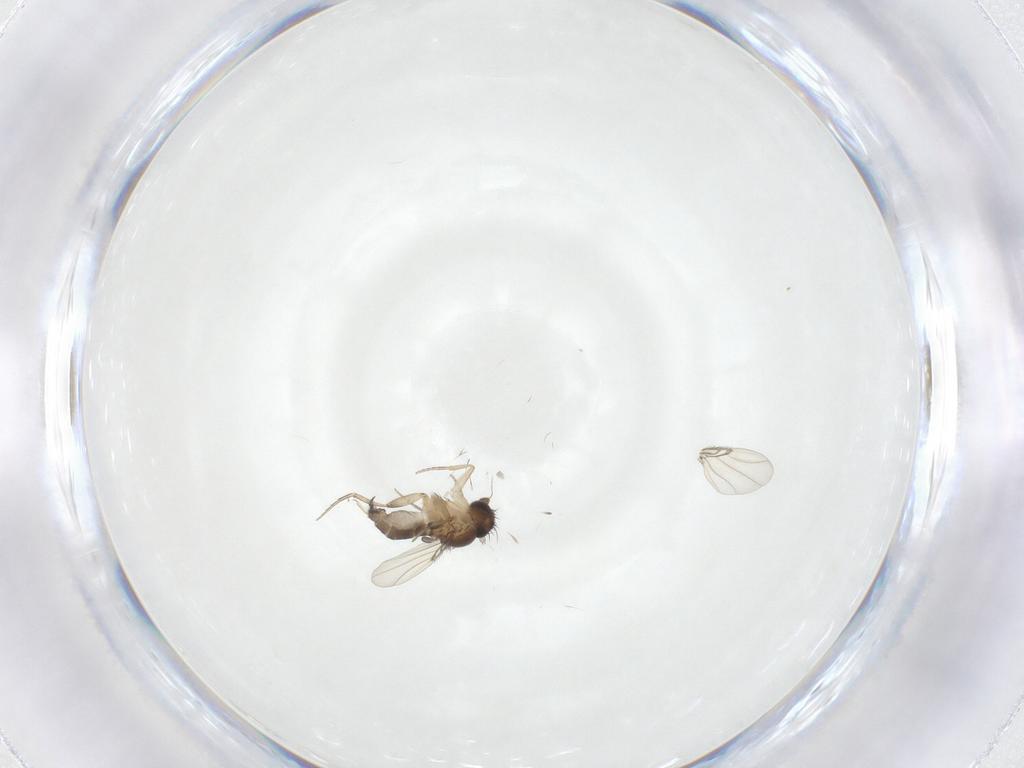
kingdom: Animalia
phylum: Arthropoda
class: Insecta
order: Diptera
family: Phoridae
